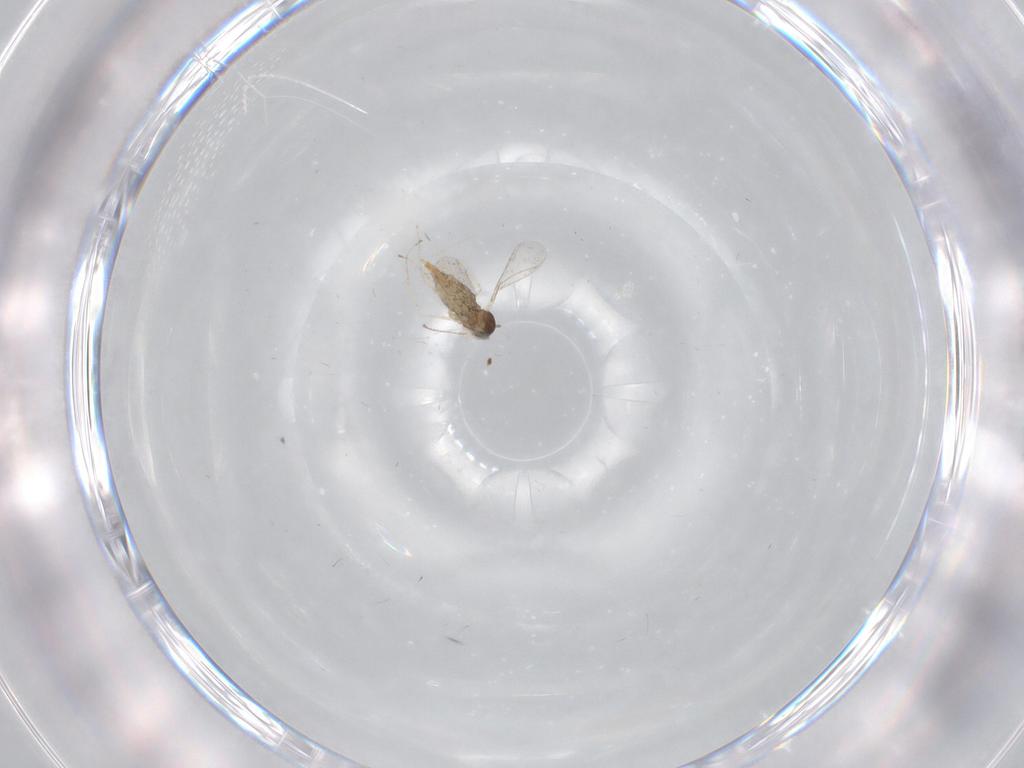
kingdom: Animalia
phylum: Arthropoda
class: Insecta
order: Diptera
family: Cecidomyiidae
